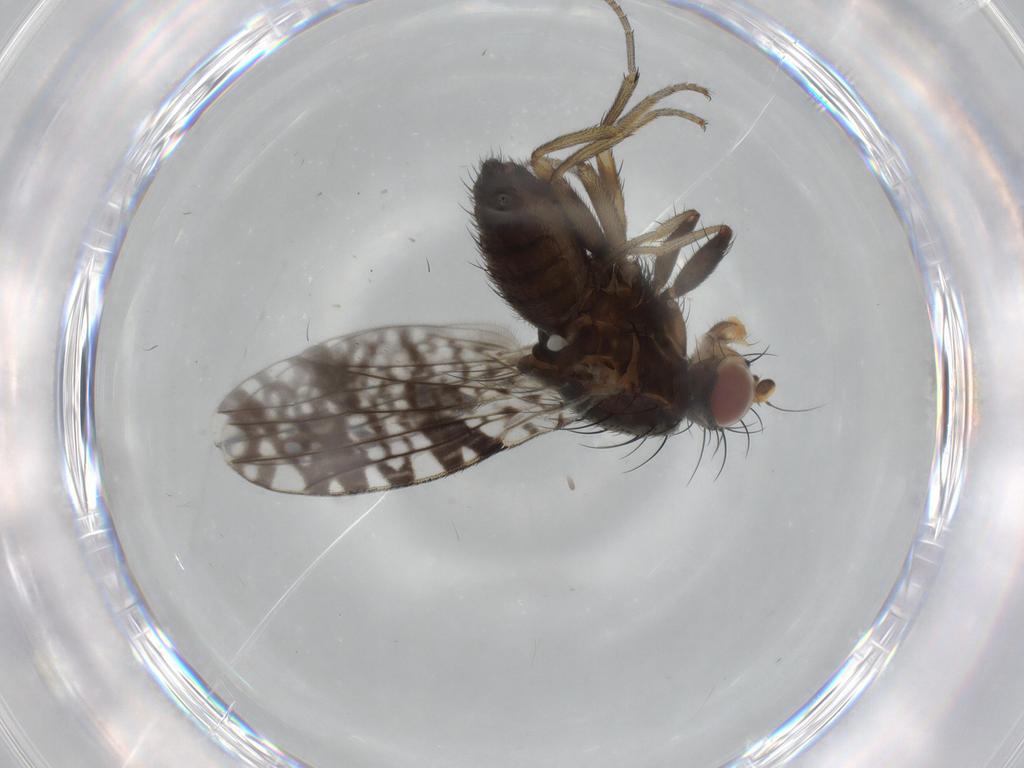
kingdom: Animalia
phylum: Arthropoda
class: Insecta
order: Diptera
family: Tephritidae
